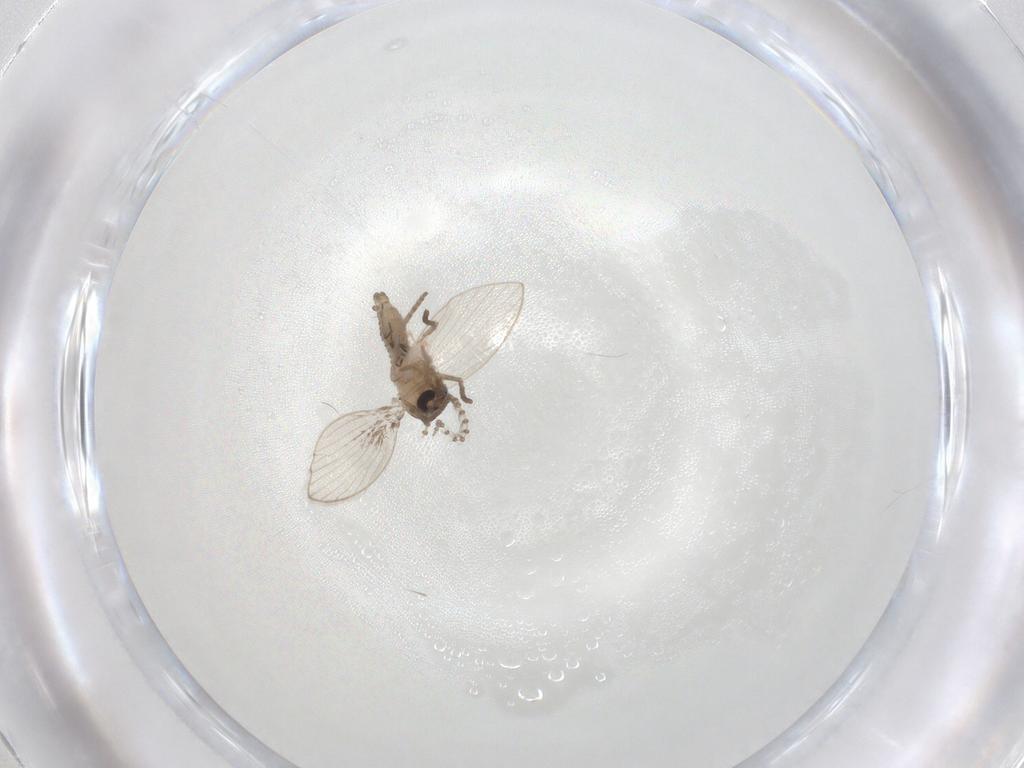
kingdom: Animalia
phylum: Arthropoda
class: Insecta
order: Diptera
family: Psychodidae
